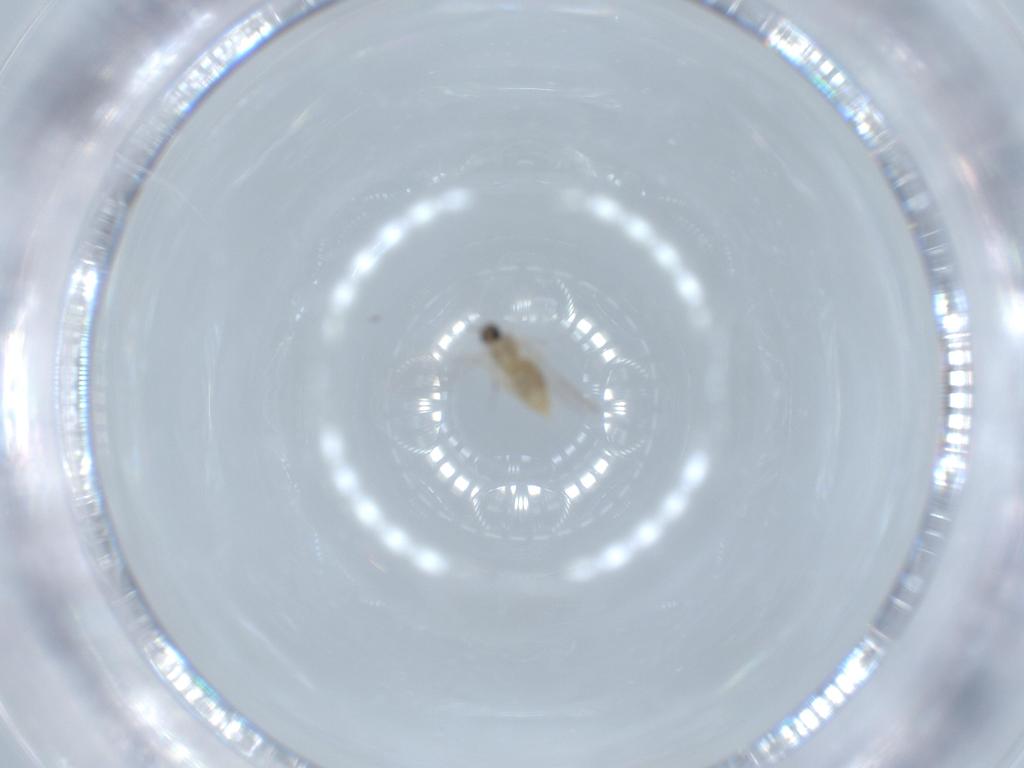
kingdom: Animalia
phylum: Arthropoda
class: Insecta
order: Diptera
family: Cecidomyiidae
